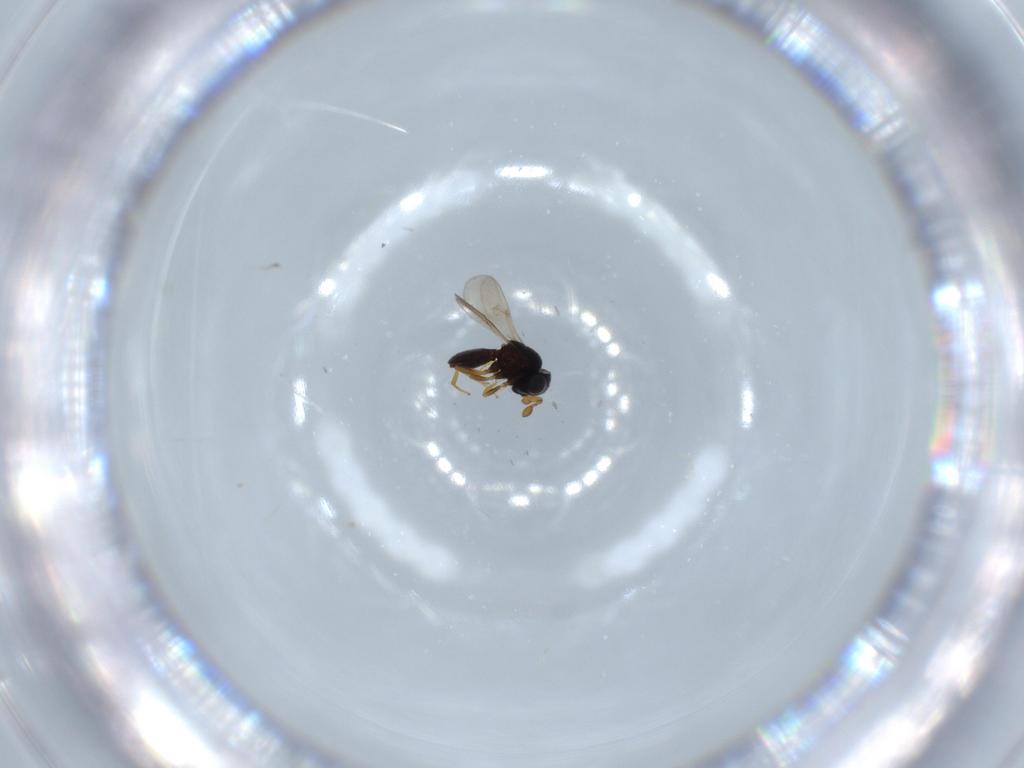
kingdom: Animalia
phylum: Arthropoda
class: Insecta
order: Hymenoptera
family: Scelionidae
